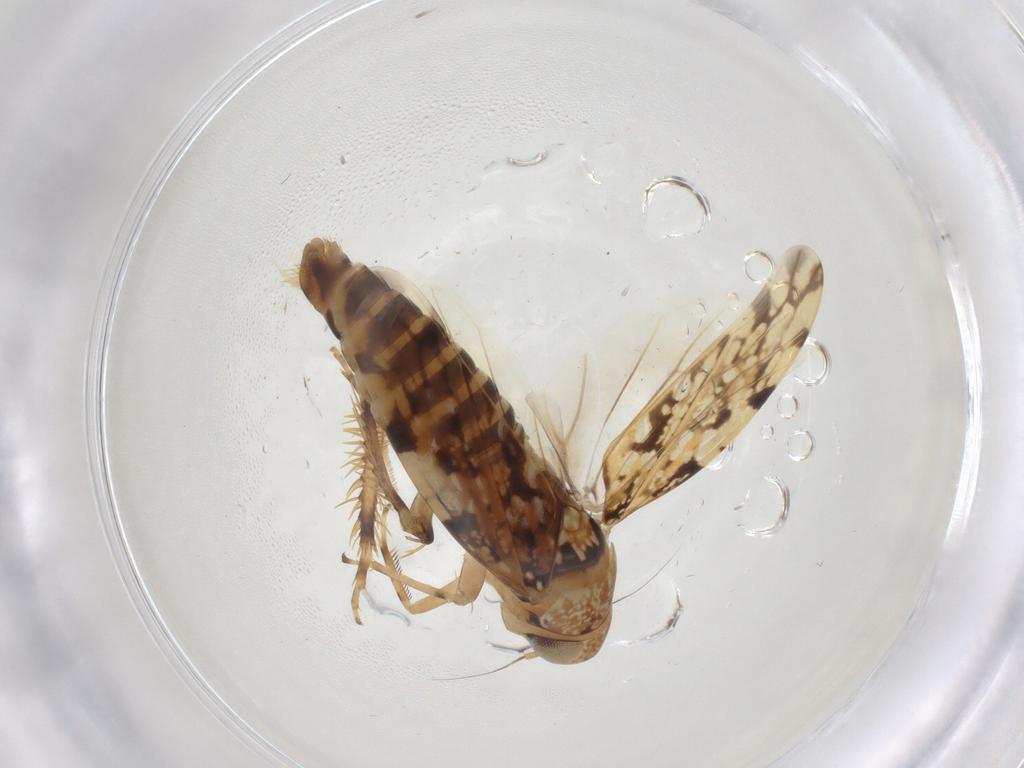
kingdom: Animalia
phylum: Arthropoda
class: Insecta
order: Hemiptera
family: Cicadellidae
